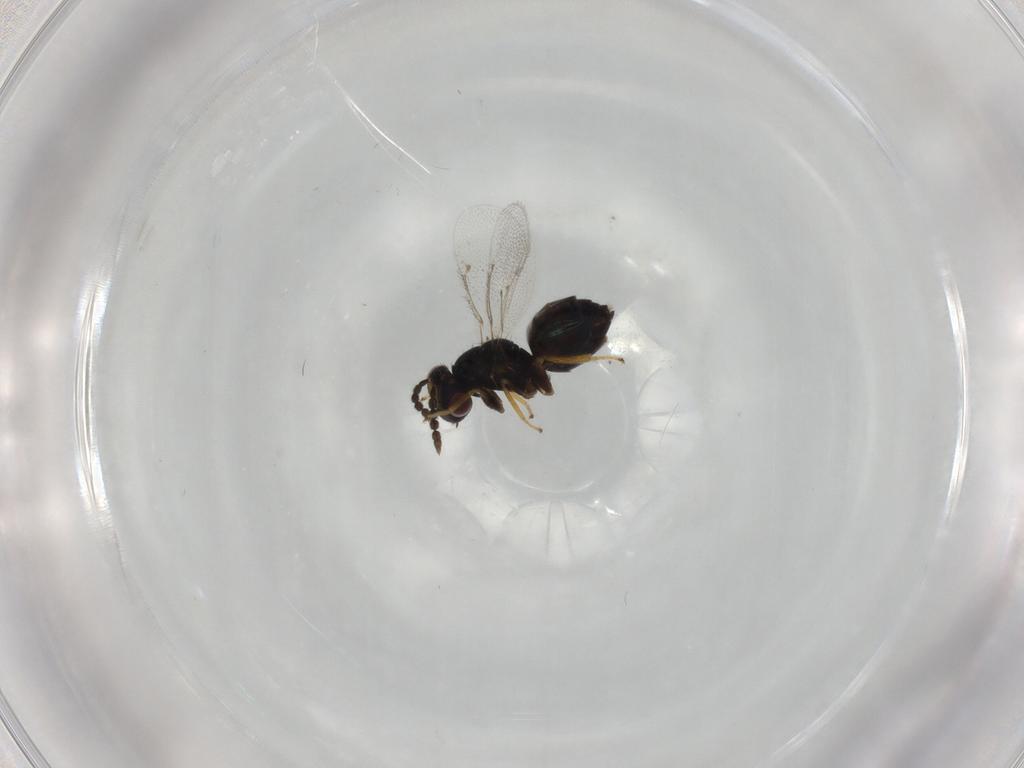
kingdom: Animalia
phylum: Arthropoda
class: Insecta
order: Hymenoptera
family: Eulophidae
